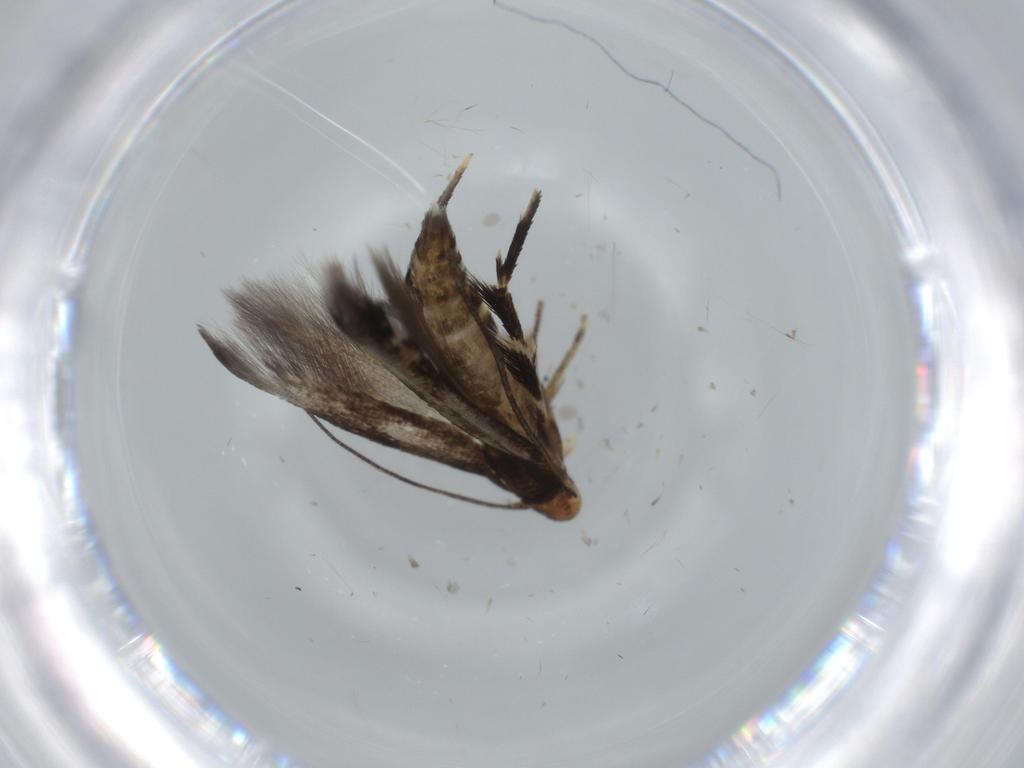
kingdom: Animalia
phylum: Arthropoda
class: Insecta
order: Lepidoptera
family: Momphidae
